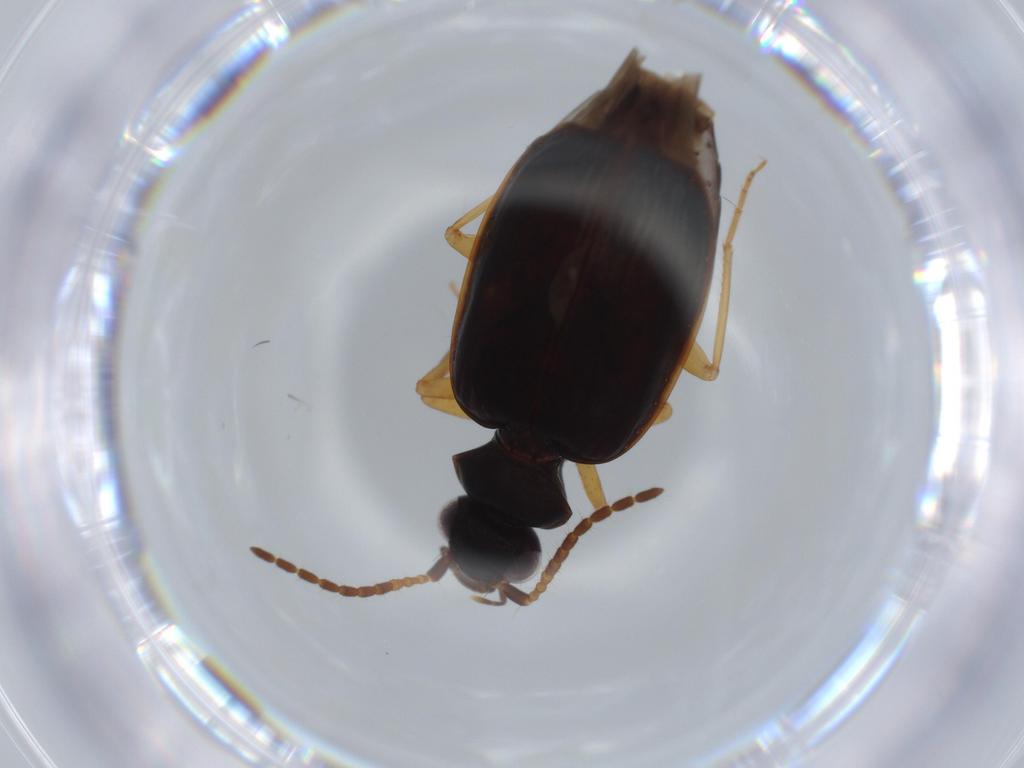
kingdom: Animalia
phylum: Arthropoda
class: Insecta
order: Coleoptera
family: Carabidae
